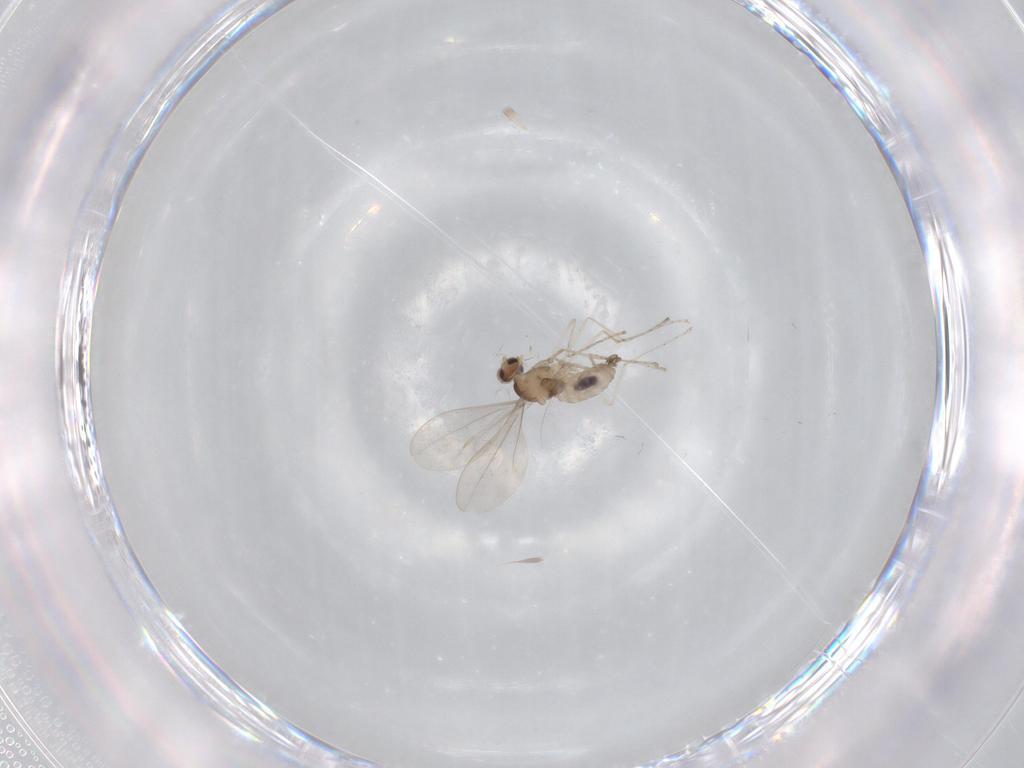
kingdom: Animalia
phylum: Arthropoda
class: Insecta
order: Diptera
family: Cecidomyiidae
